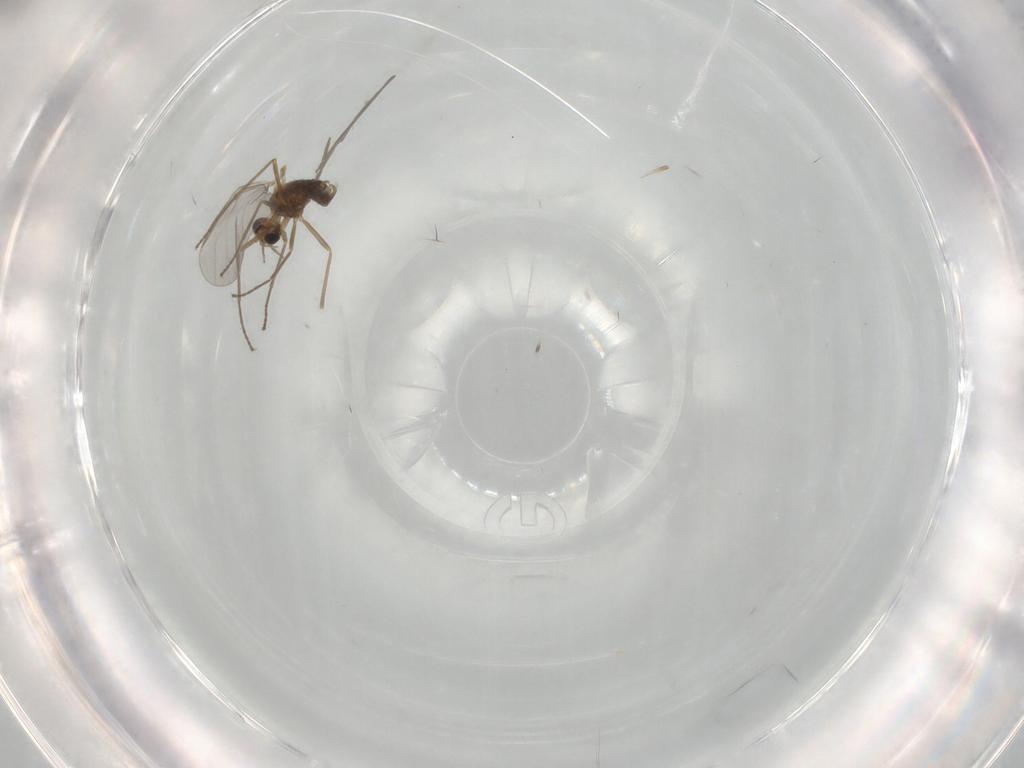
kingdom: Animalia
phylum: Arthropoda
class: Insecta
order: Diptera
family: Cecidomyiidae
